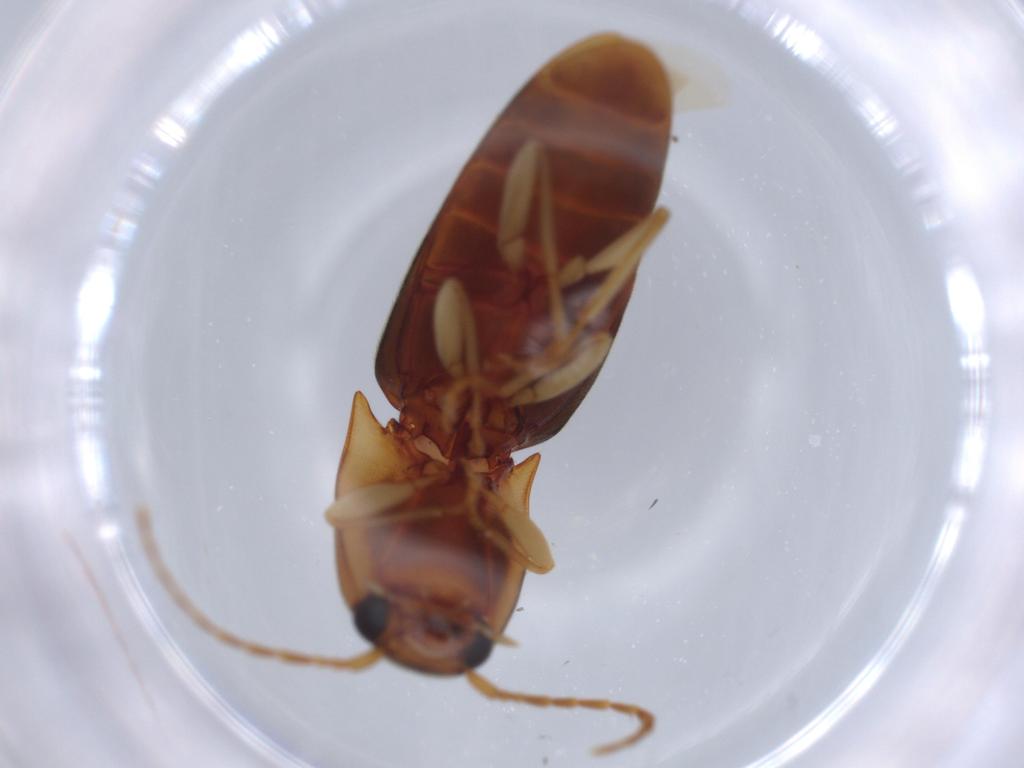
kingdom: Animalia
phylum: Arthropoda
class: Insecta
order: Coleoptera
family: Elateridae
